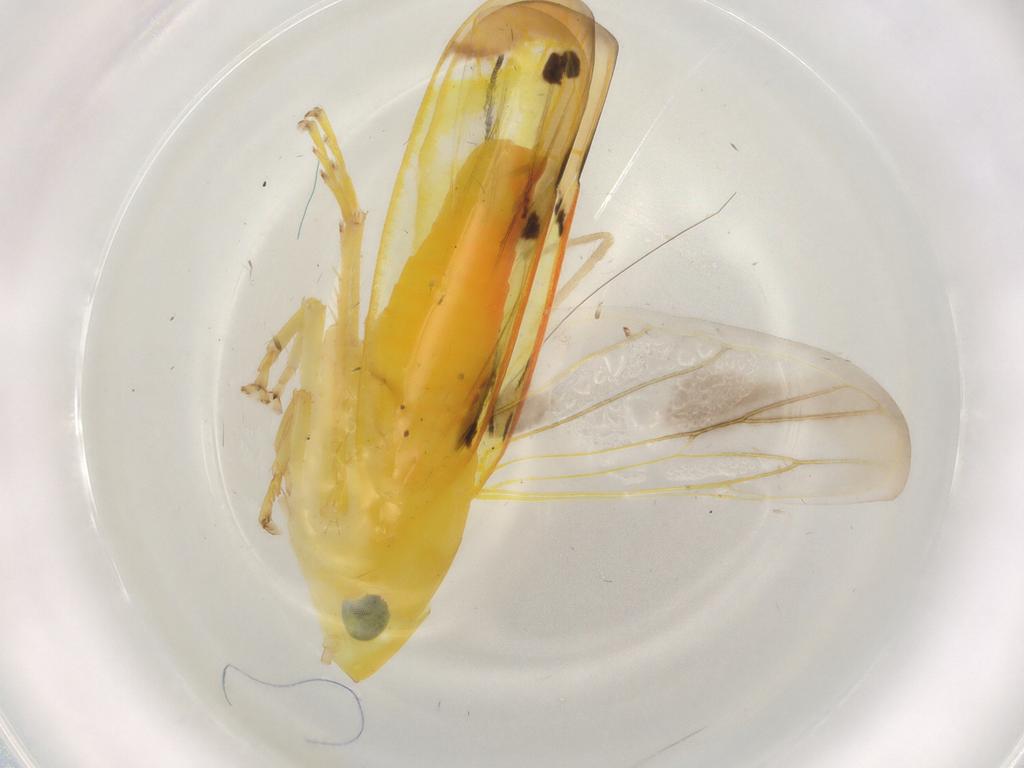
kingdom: Animalia
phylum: Arthropoda
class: Insecta
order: Hemiptera
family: Cicadellidae
